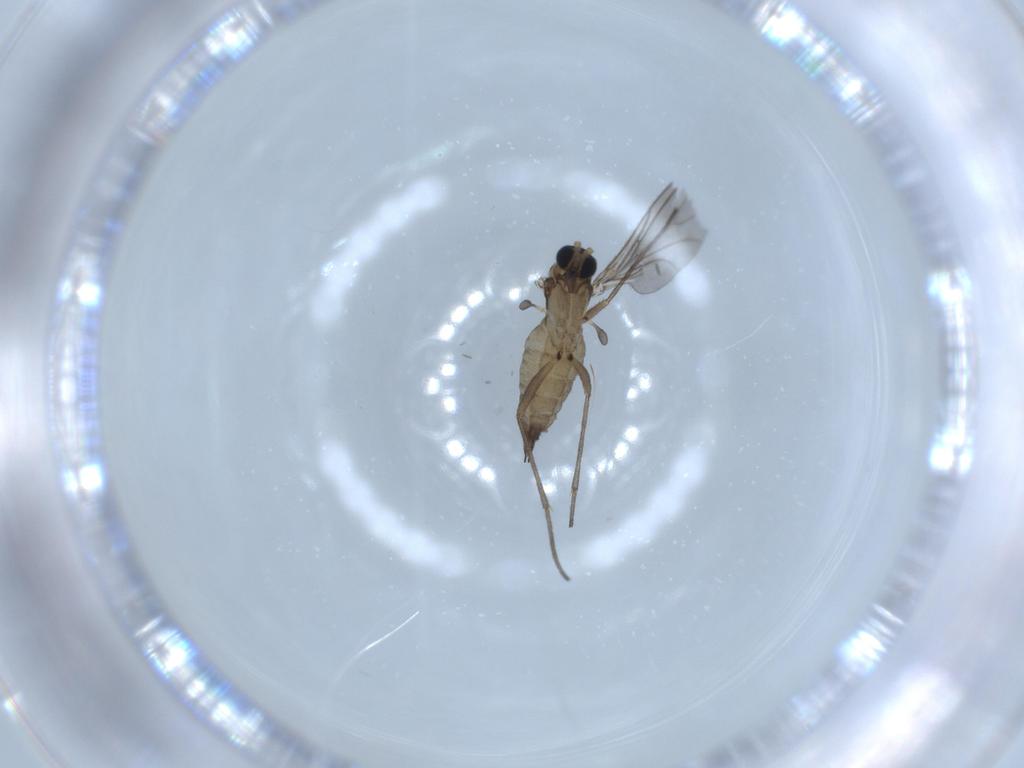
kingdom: Animalia
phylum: Arthropoda
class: Insecta
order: Diptera
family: Sciaridae
